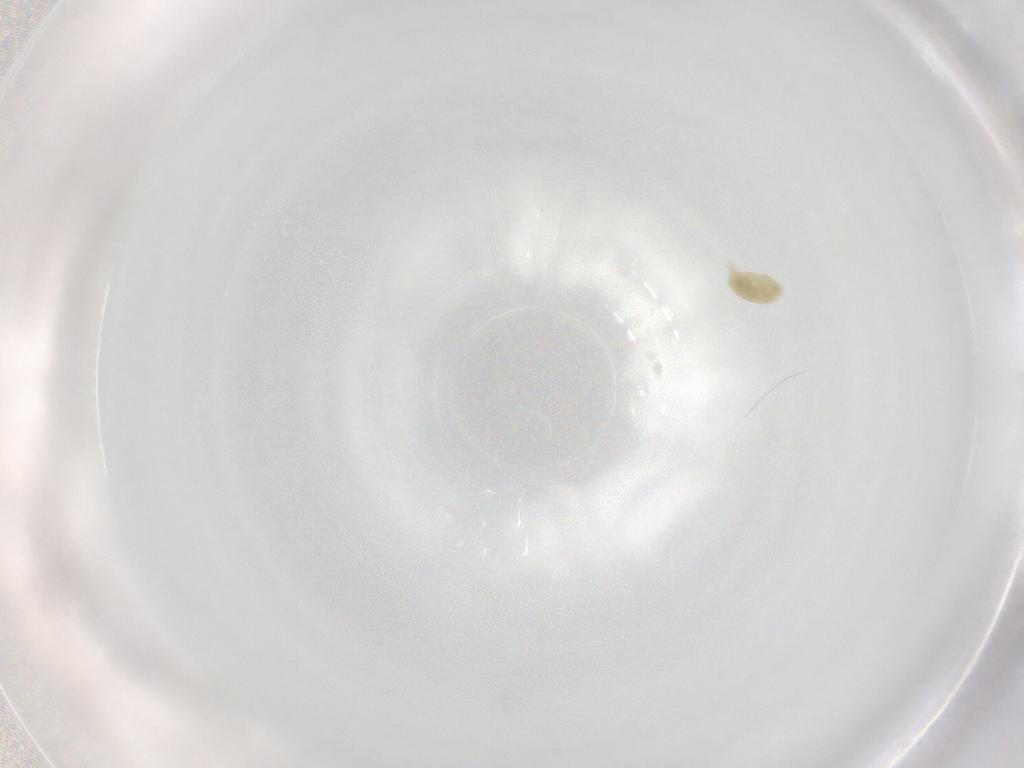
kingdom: Animalia
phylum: Arthropoda
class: Arachnida
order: Trombidiformes
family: Eupodidae
